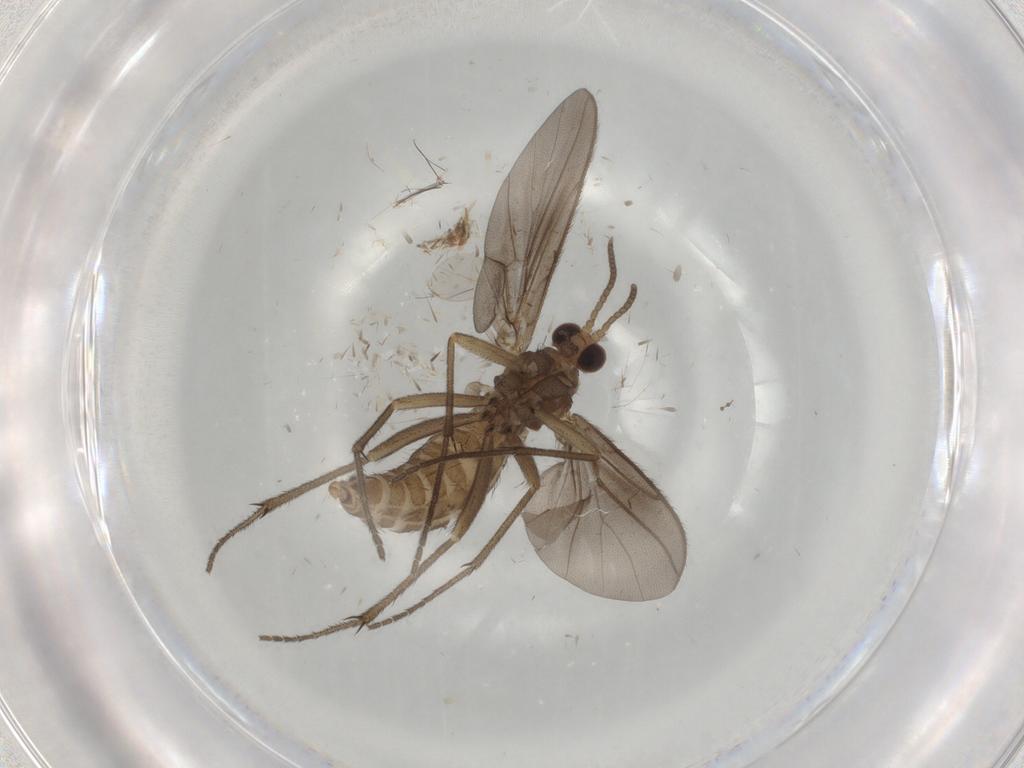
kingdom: Animalia
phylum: Arthropoda
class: Insecta
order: Diptera
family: Diadocidiidae
